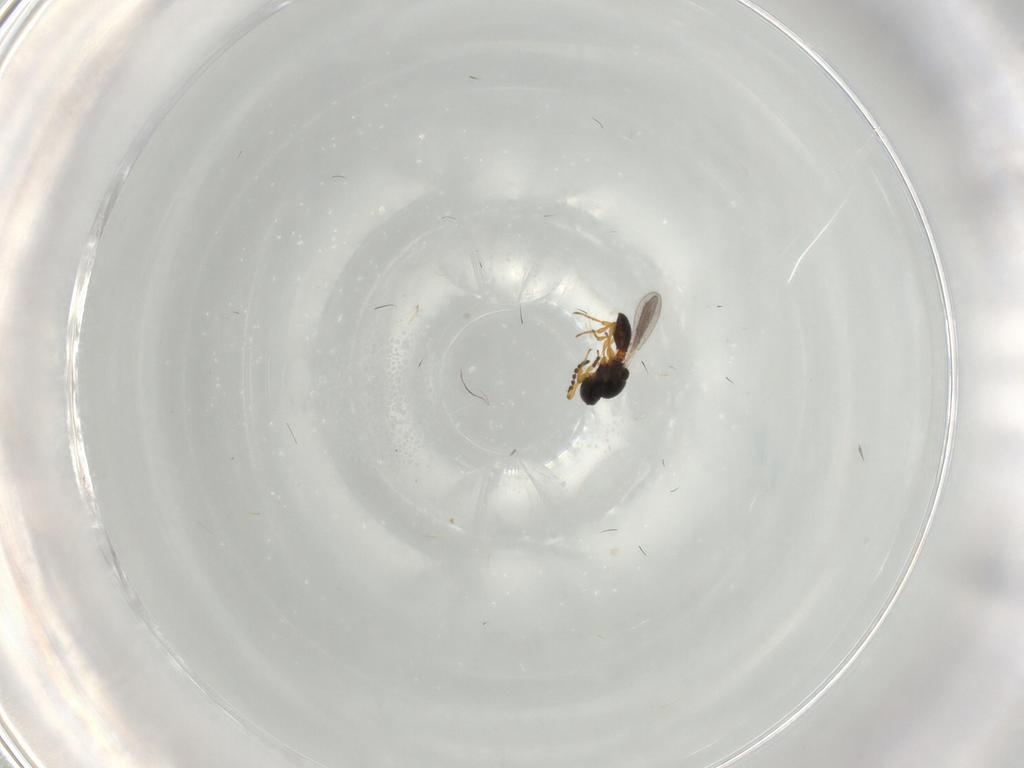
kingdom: Animalia
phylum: Arthropoda
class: Insecta
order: Hymenoptera
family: Platygastridae
